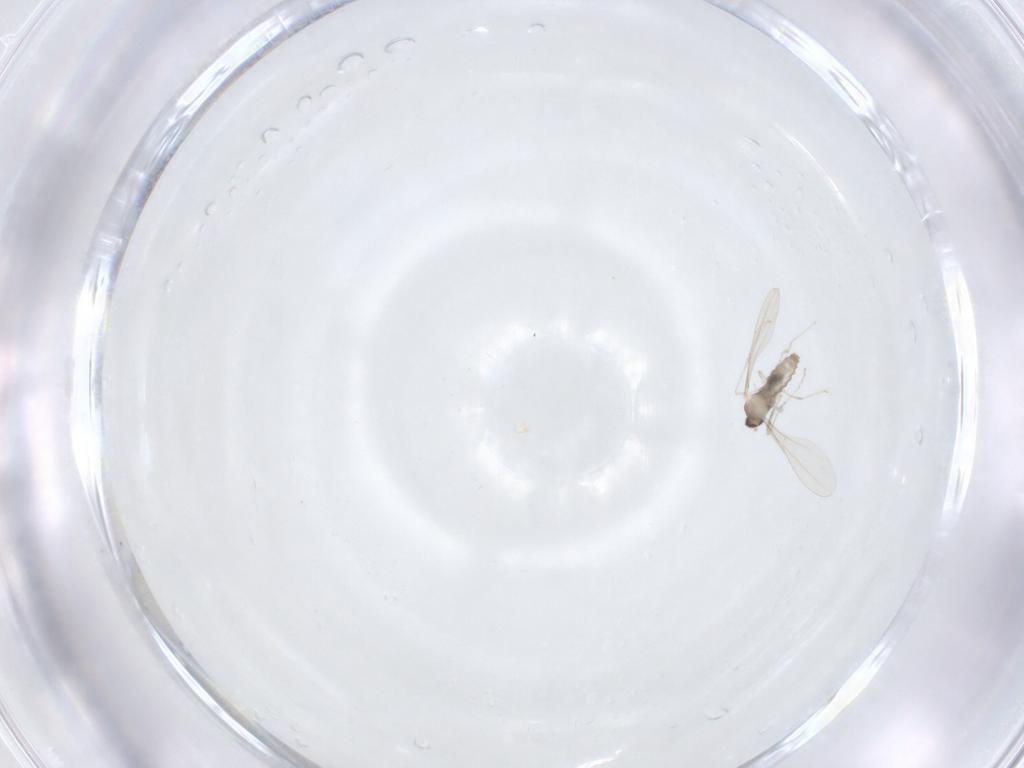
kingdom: Animalia
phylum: Arthropoda
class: Insecta
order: Diptera
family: Cecidomyiidae
